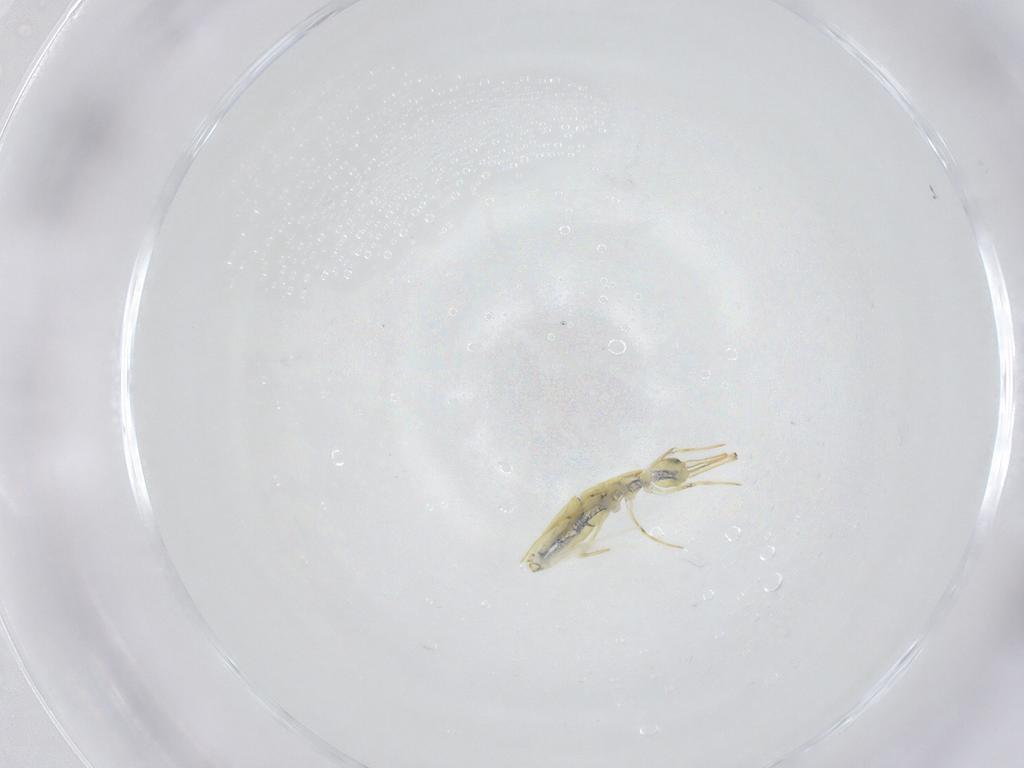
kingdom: Animalia
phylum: Arthropoda
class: Collembola
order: Entomobryomorpha
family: Paronellidae
